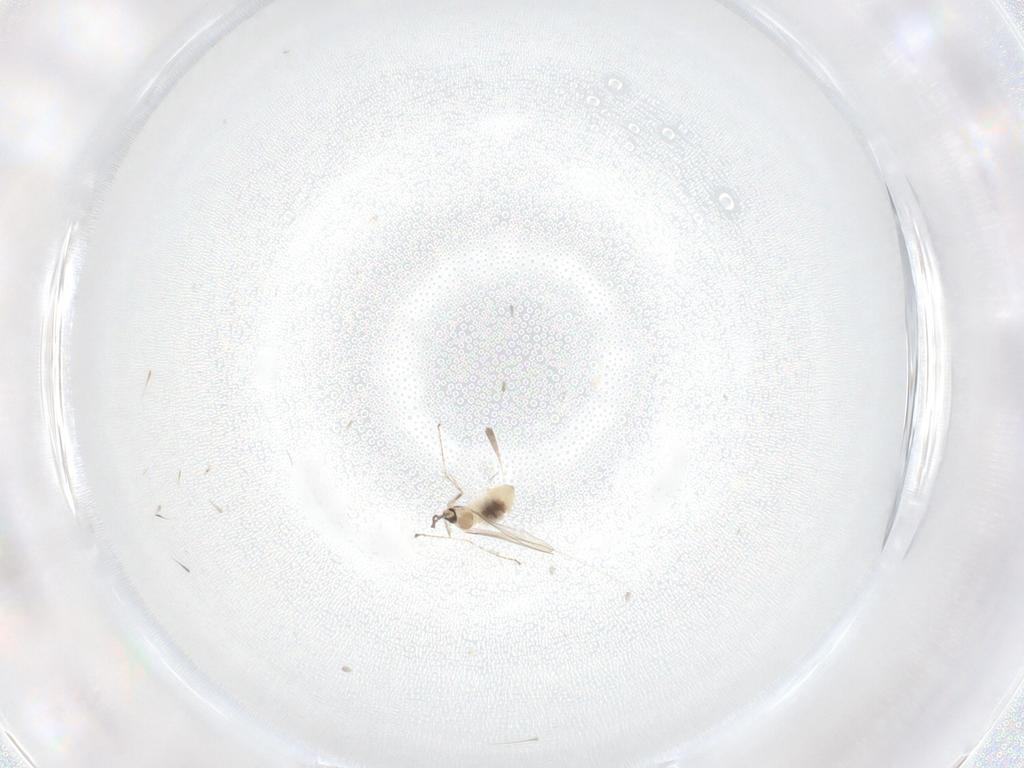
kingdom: Animalia
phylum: Arthropoda
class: Insecta
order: Diptera
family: Cecidomyiidae
